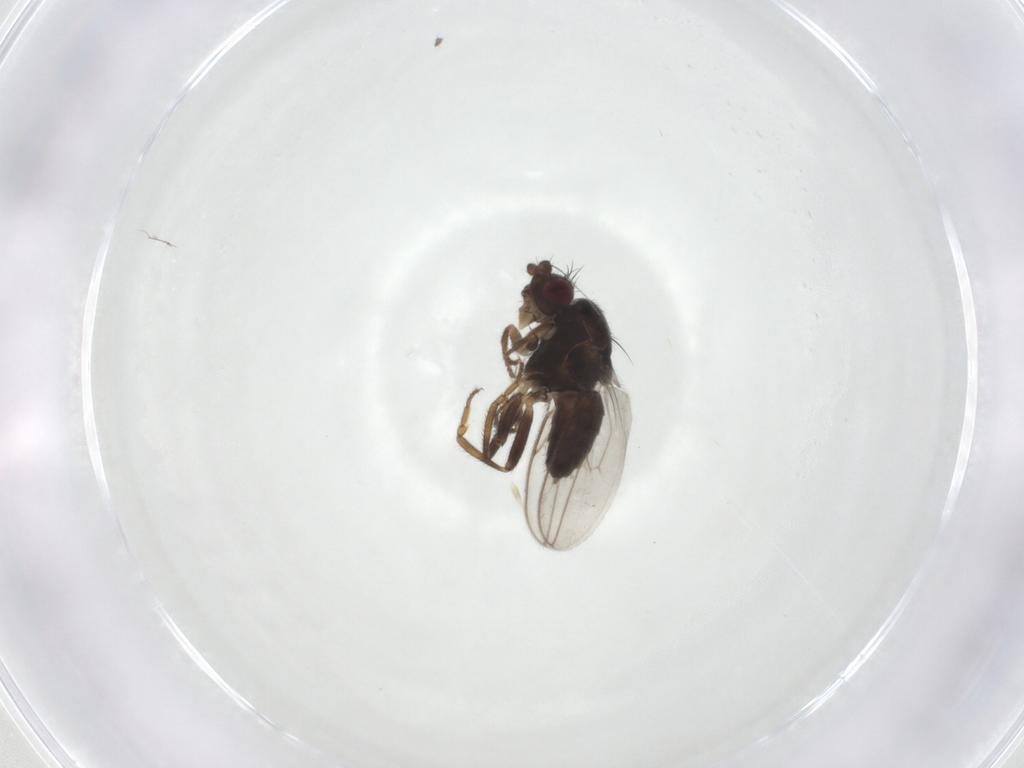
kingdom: Animalia
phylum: Arthropoda
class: Insecta
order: Diptera
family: Sphaeroceridae
